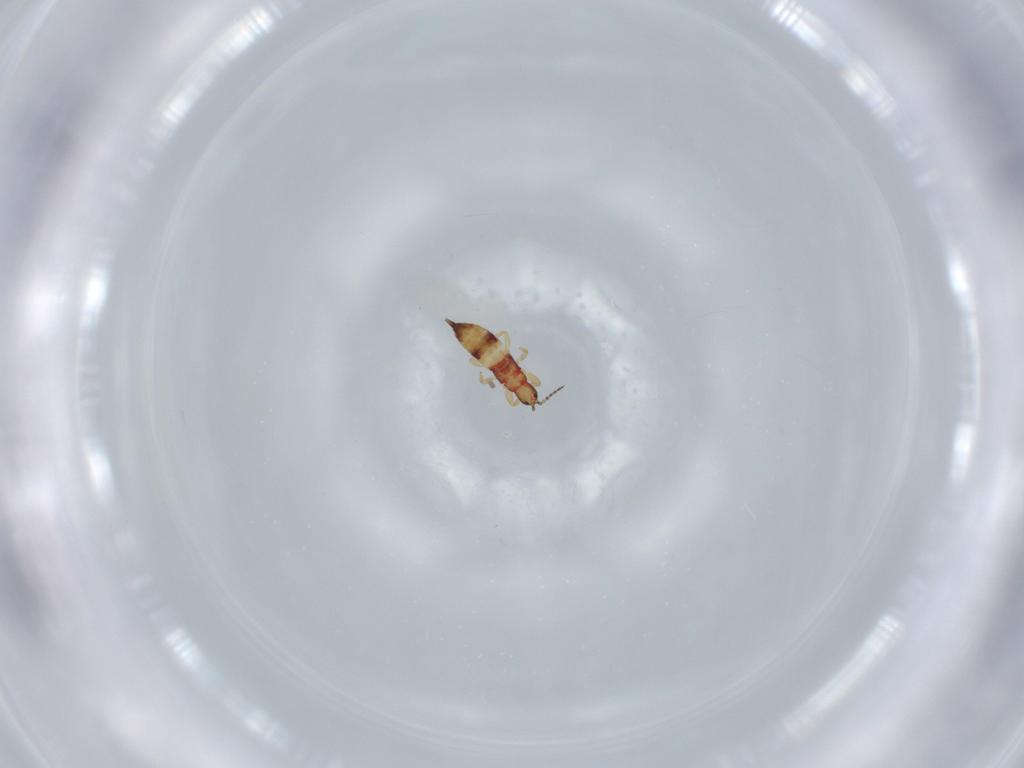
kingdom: Animalia
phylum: Arthropoda
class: Insecta
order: Thysanoptera
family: Phlaeothripidae
